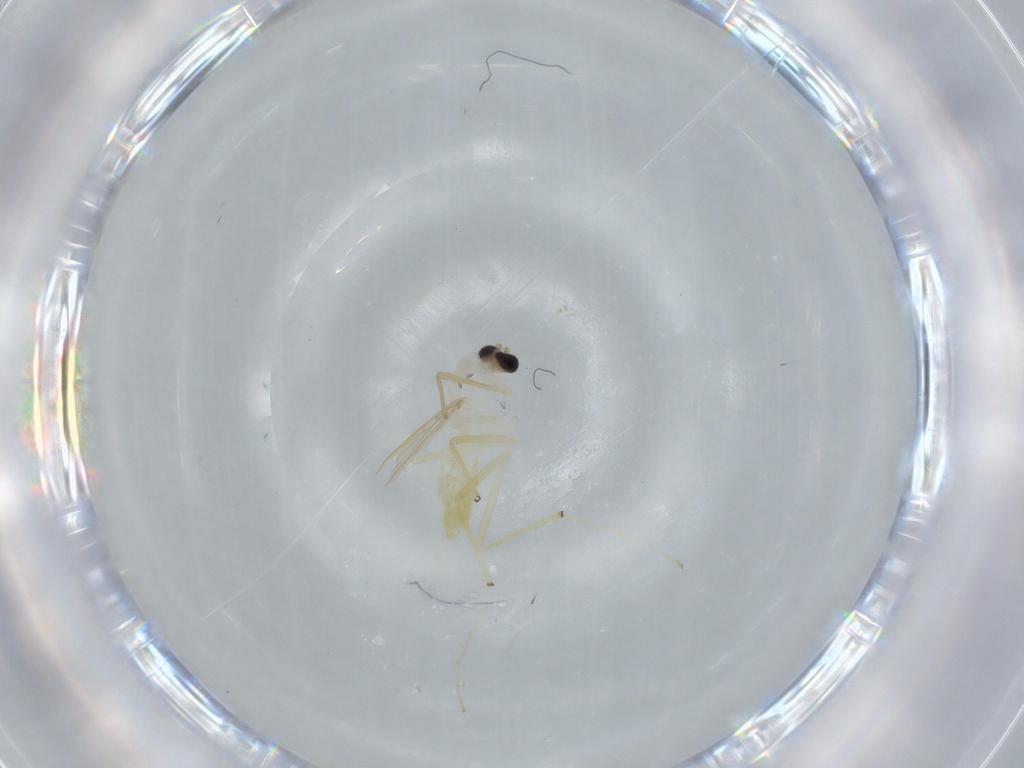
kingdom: Animalia
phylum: Arthropoda
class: Insecta
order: Diptera
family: Chironomidae
